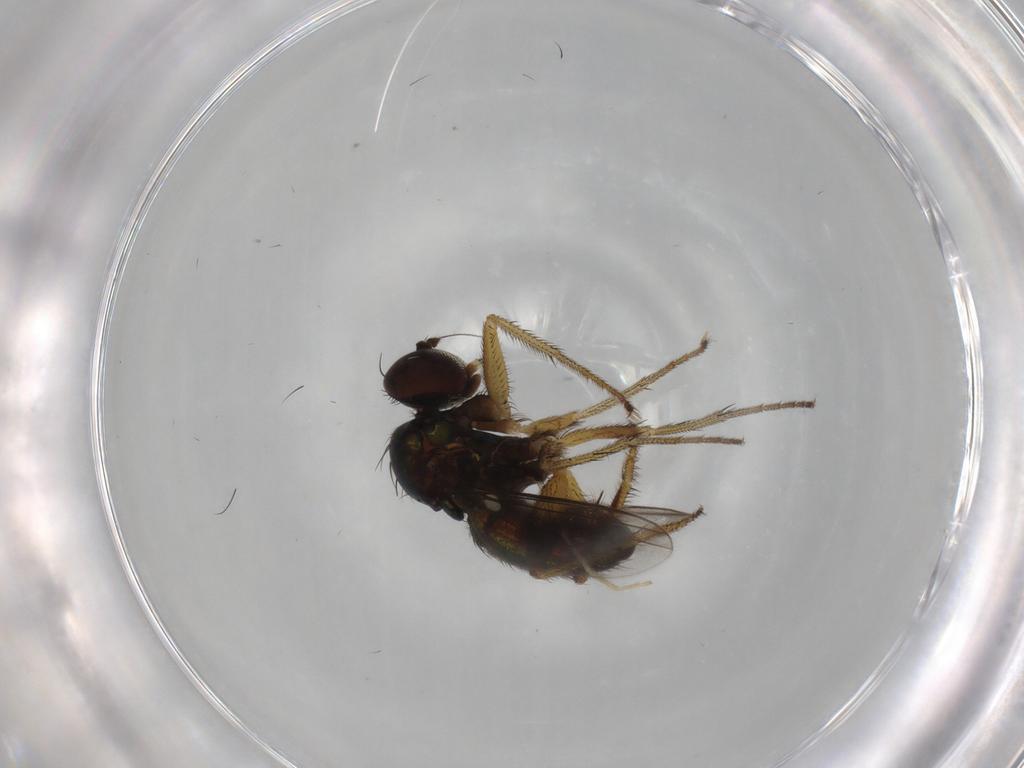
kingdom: Animalia
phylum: Arthropoda
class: Insecta
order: Diptera
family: Dolichopodidae
